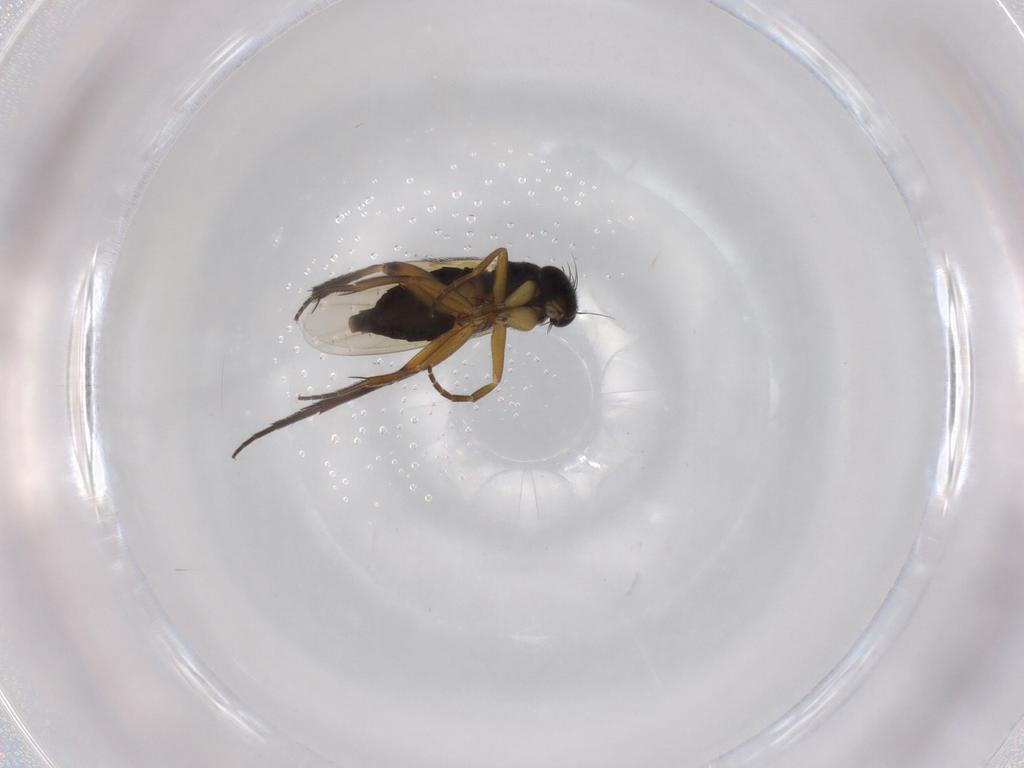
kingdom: Animalia
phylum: Arthropoda
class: Insecta
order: Diptera
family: Phoridae
